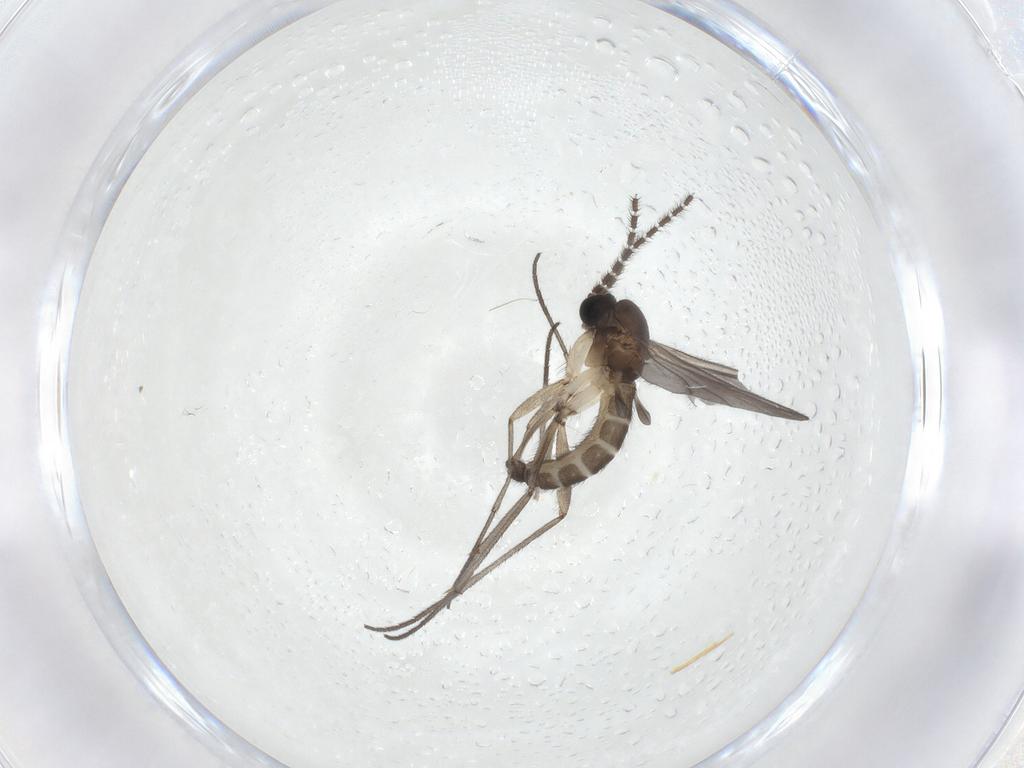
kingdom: Animalia
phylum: Arthropoda
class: Insecta
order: Diptera
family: Sciaridae
